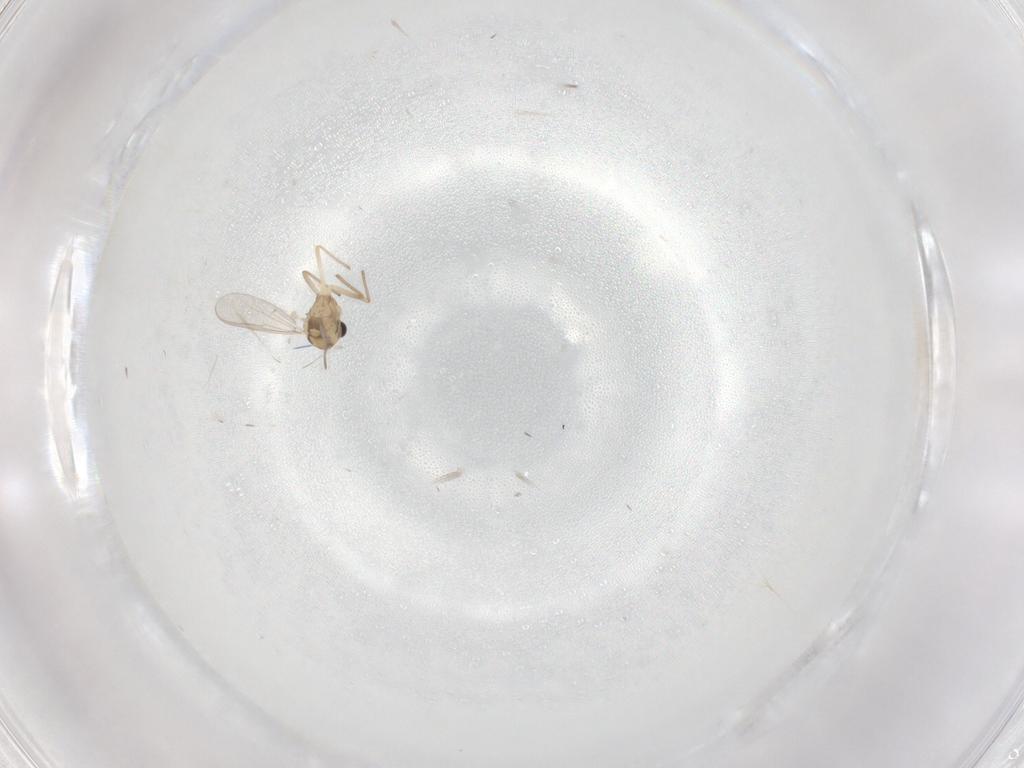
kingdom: Animalia
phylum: Arthropoda
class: Insecta
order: Diptera
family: Chironomidae
